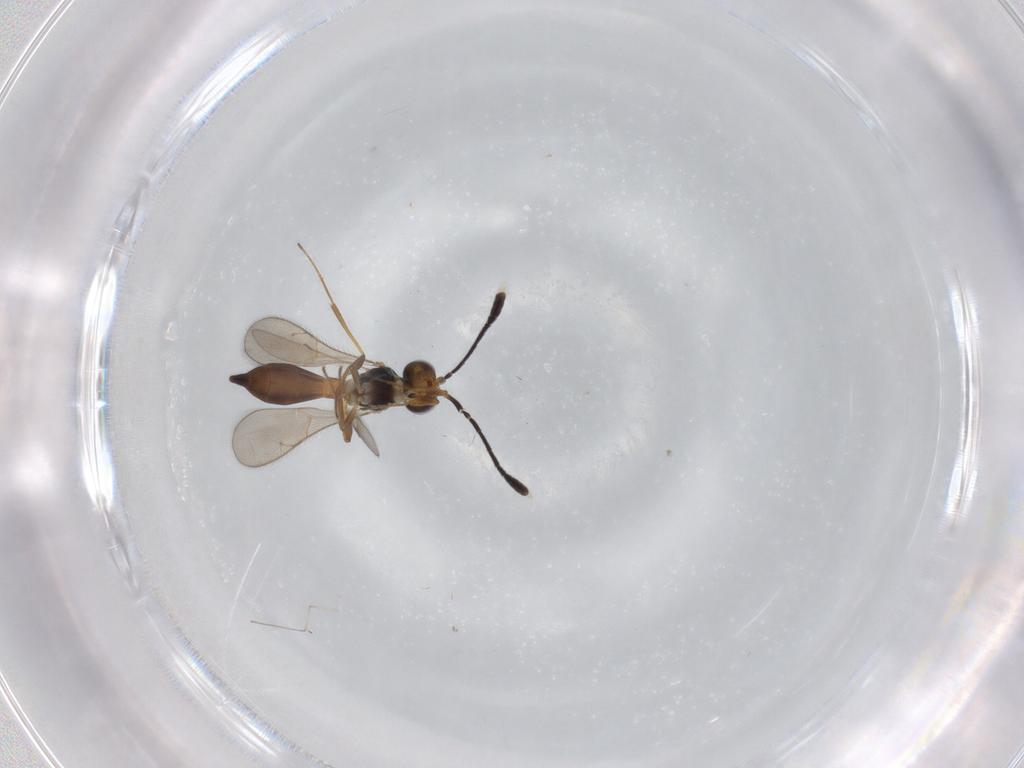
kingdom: Animalia
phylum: Arthropoda
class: Insecta
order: Hymenoptera
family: Scelionidae
